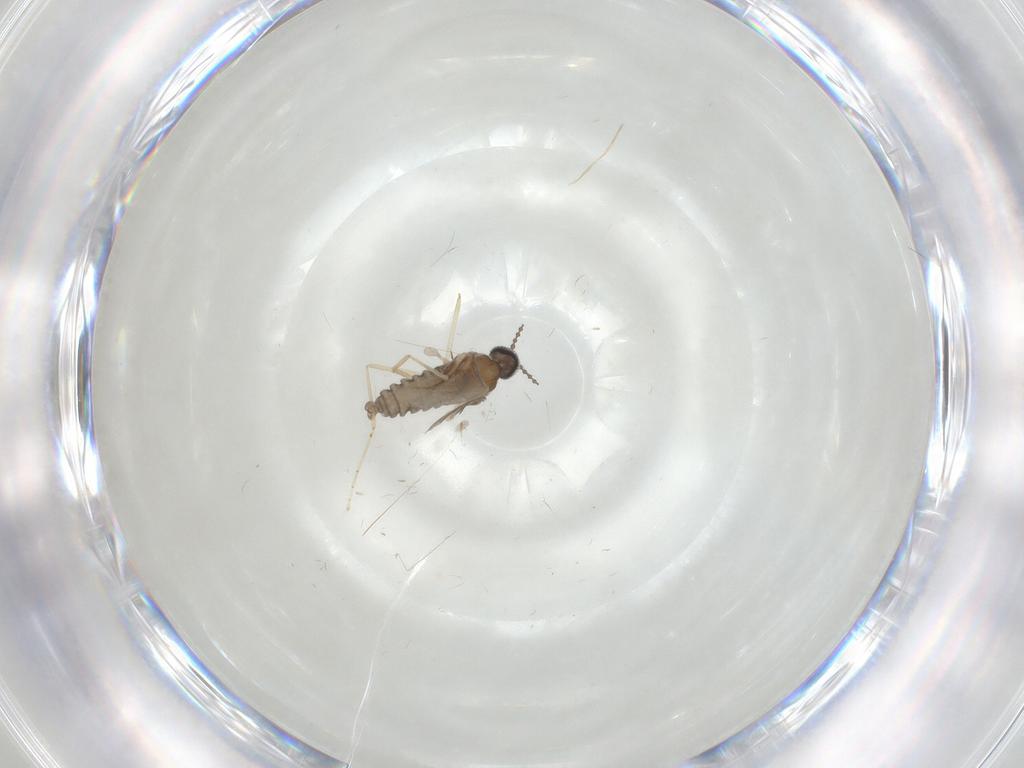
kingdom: Animalia
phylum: Arthropoda
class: Insecta
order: Diptera
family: Cecidomyiidae
